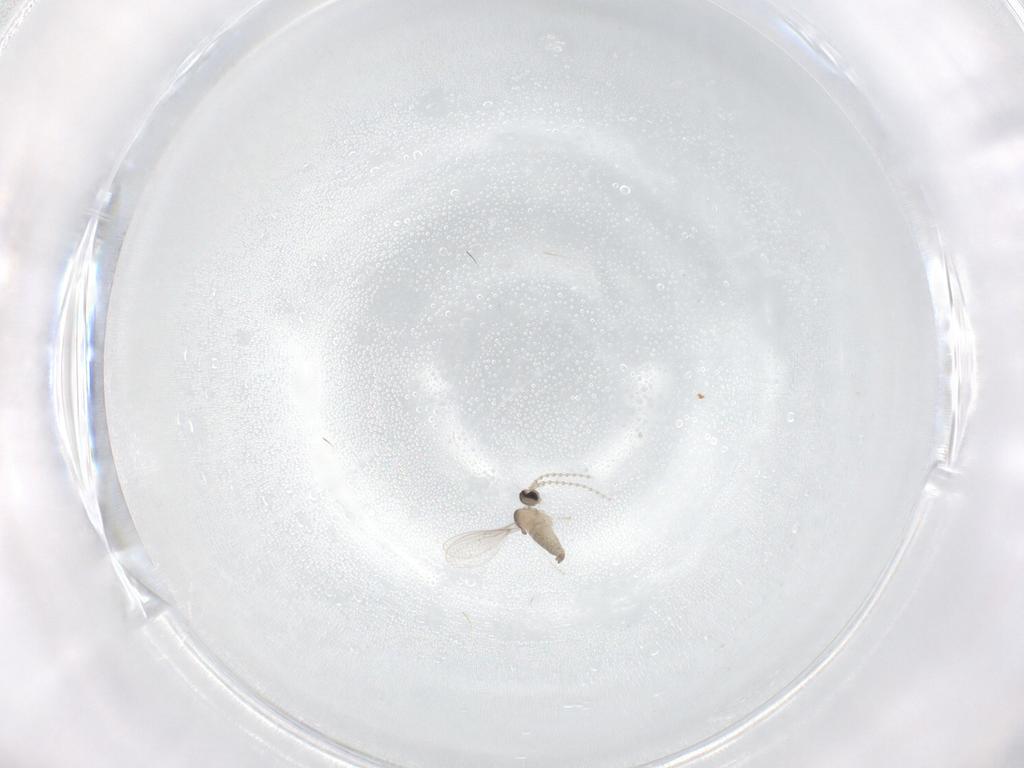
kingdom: Animalia
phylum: Arthropoda
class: Insecta
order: Diptera
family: Cecidomyiidae
